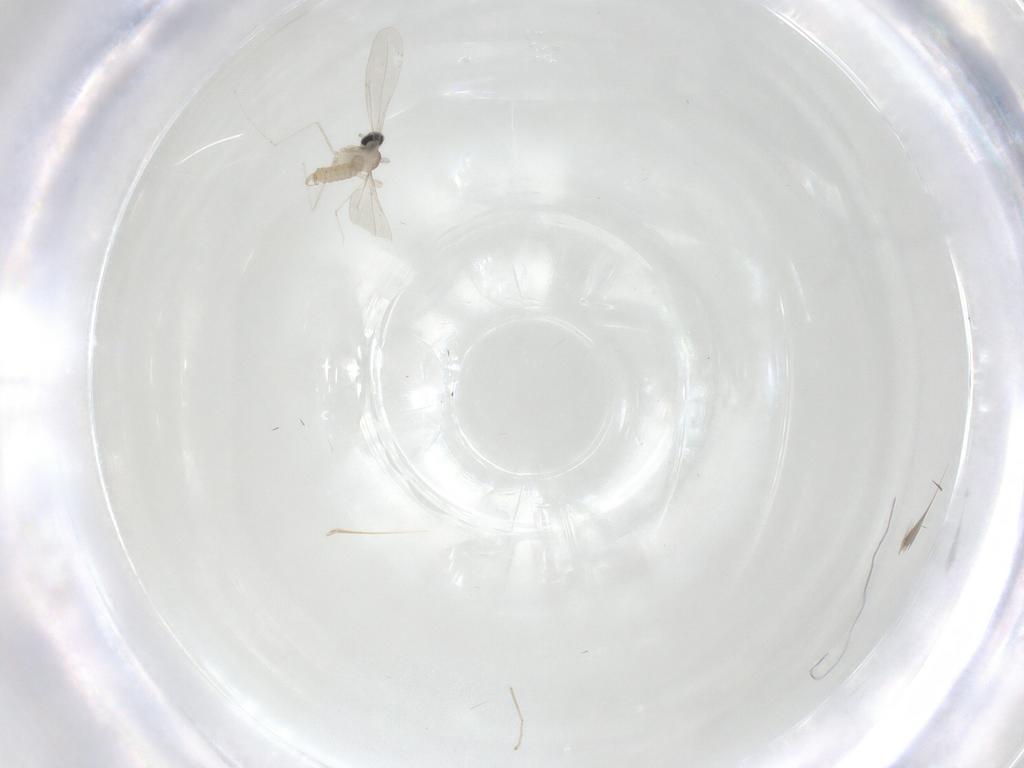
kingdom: Animalia
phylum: Arthropoda
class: Insecta
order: Diptera
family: Cecidomyiidae
